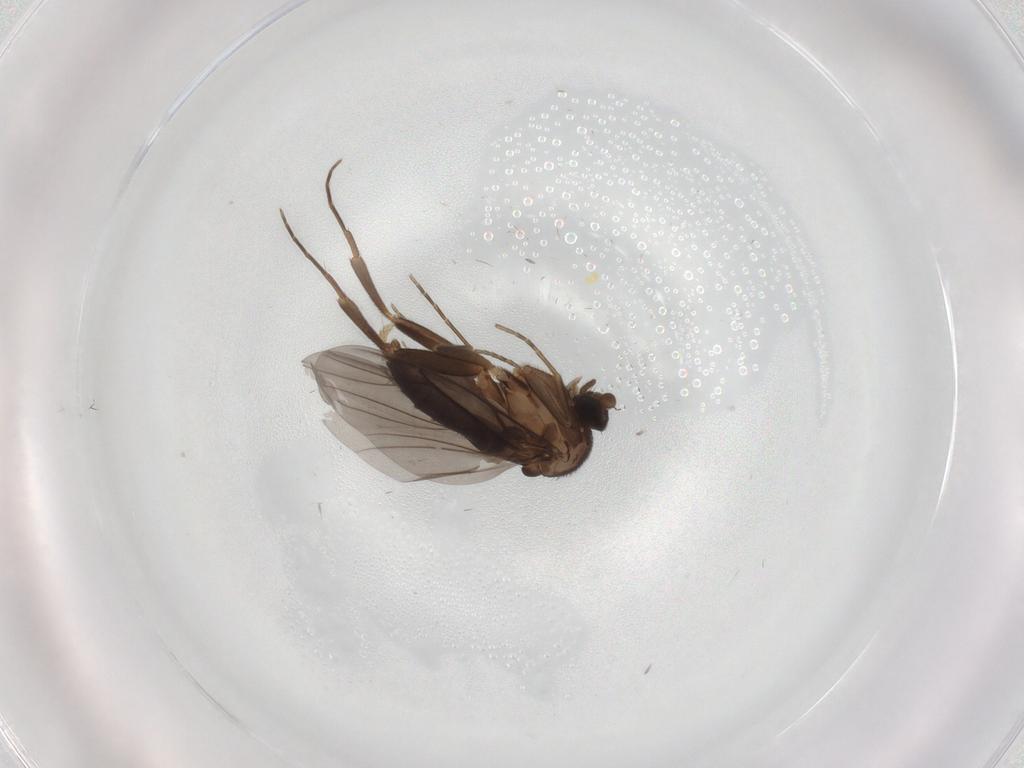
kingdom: Animalia
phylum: Arthropoda
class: Insecta
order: Diptera
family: Ceratopogonidae
